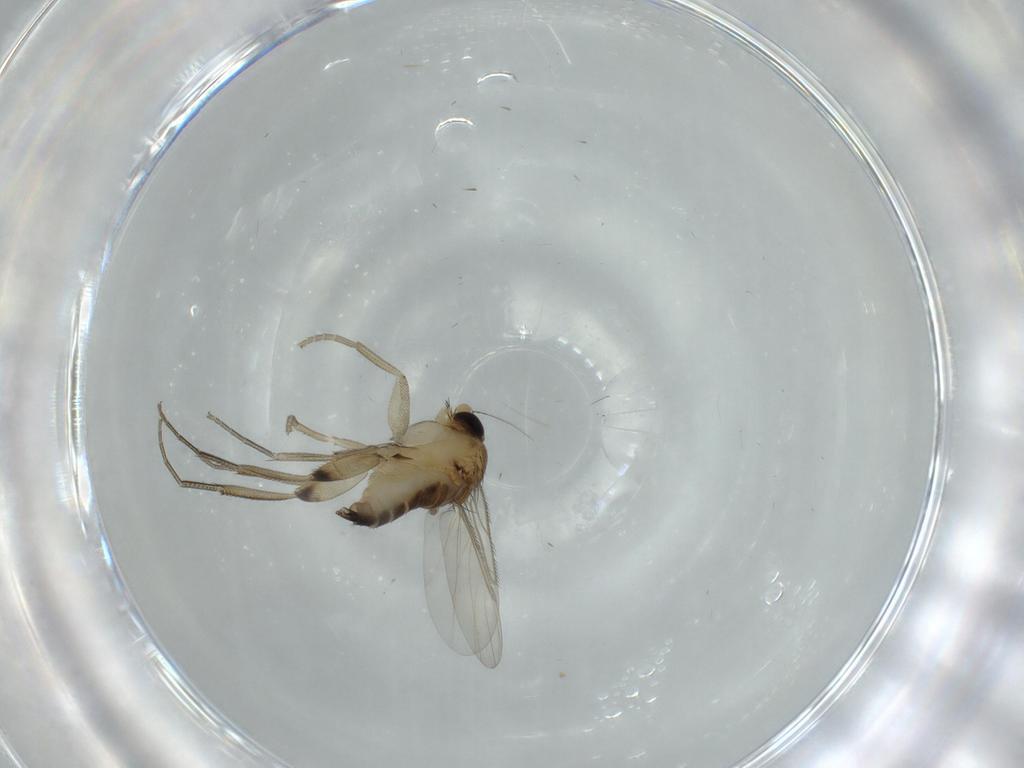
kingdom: Animalia
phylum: Arthropoda
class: Insecta
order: Diptera
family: Phoridae
